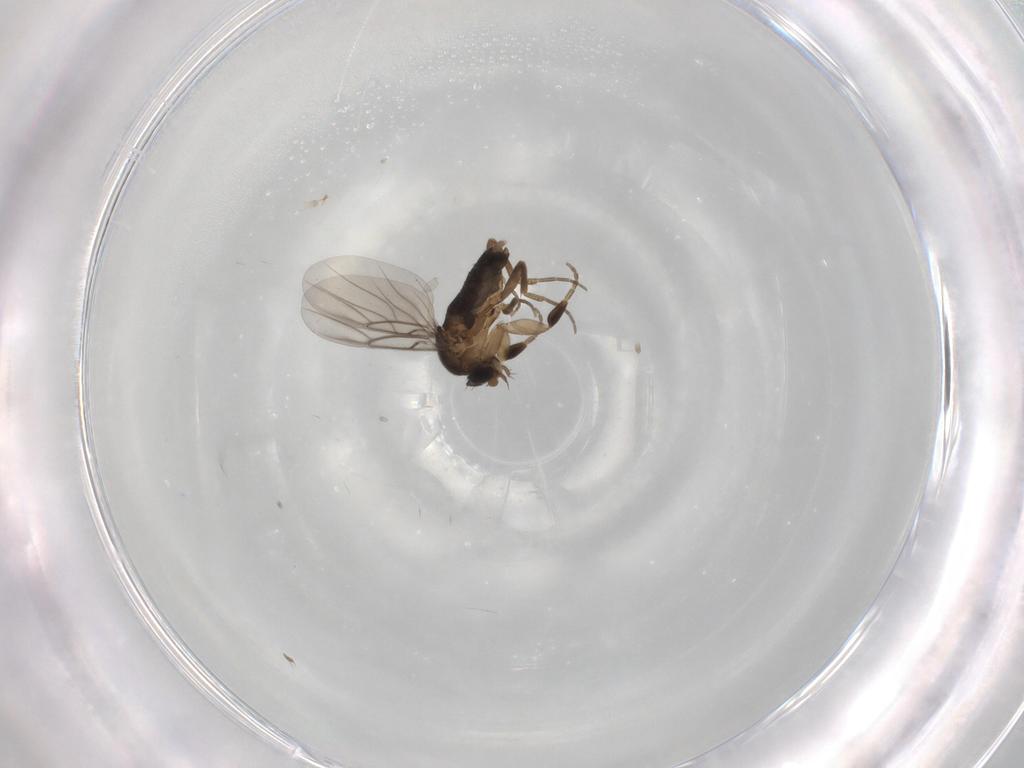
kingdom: Animalia
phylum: Arthropoda
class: Insecta
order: Diptera
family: Phoridae
